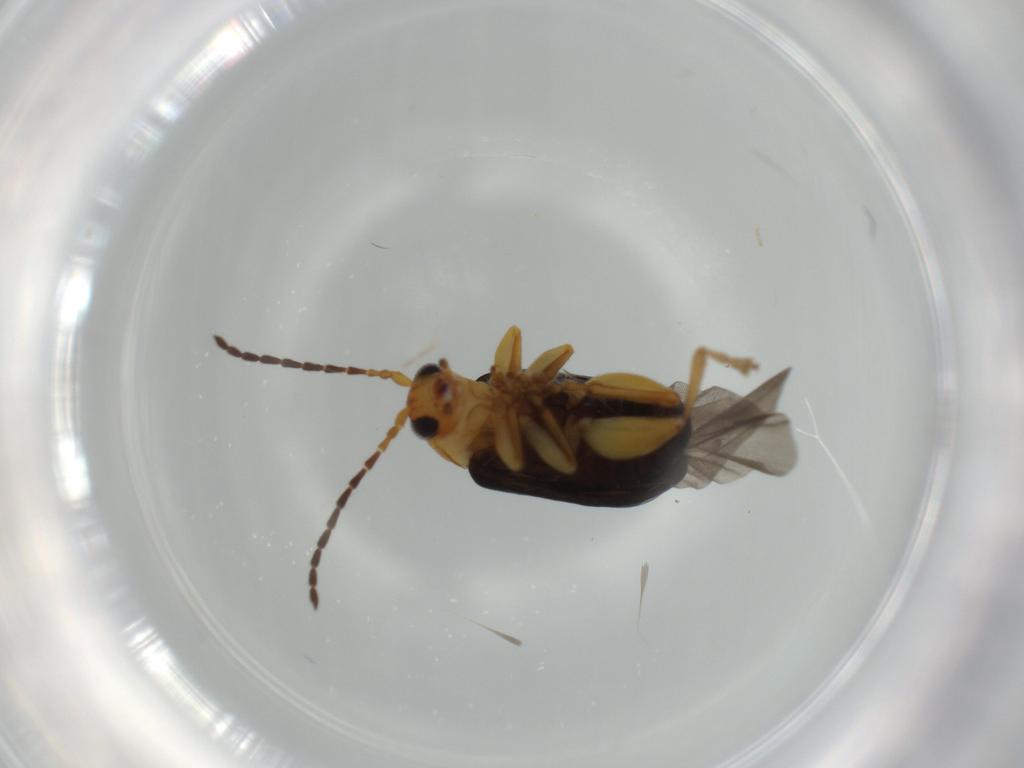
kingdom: Animalia
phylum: Arthropoda
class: Insecta
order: Coleoptera
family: Chrysomelidae
